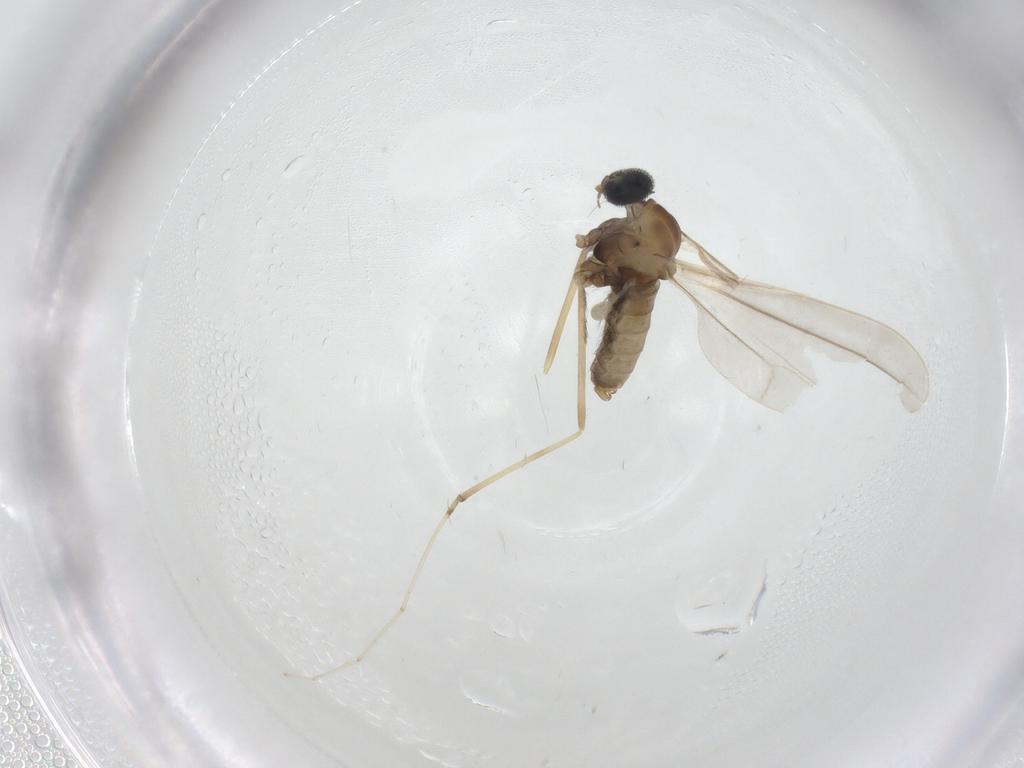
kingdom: Animalia
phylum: Arthropoda
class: Insecta
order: Diptera
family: Cecidomyiidae
